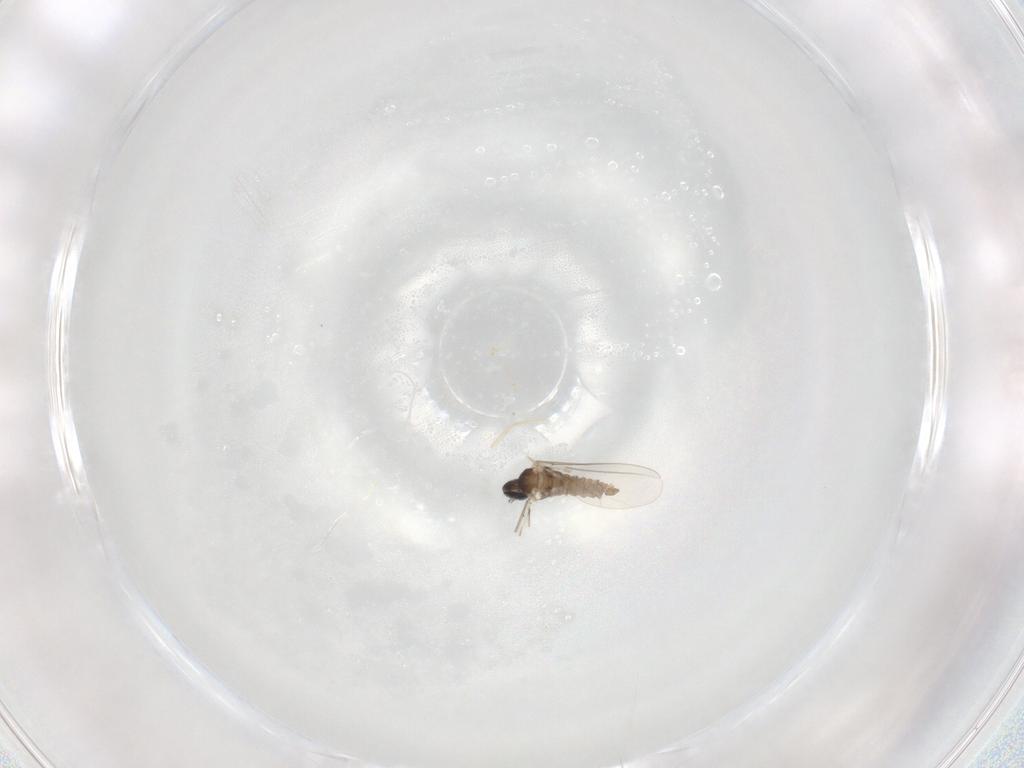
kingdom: Animalia
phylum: Arthropoda
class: Insecta
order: Diptera
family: Cecidomyiidae
